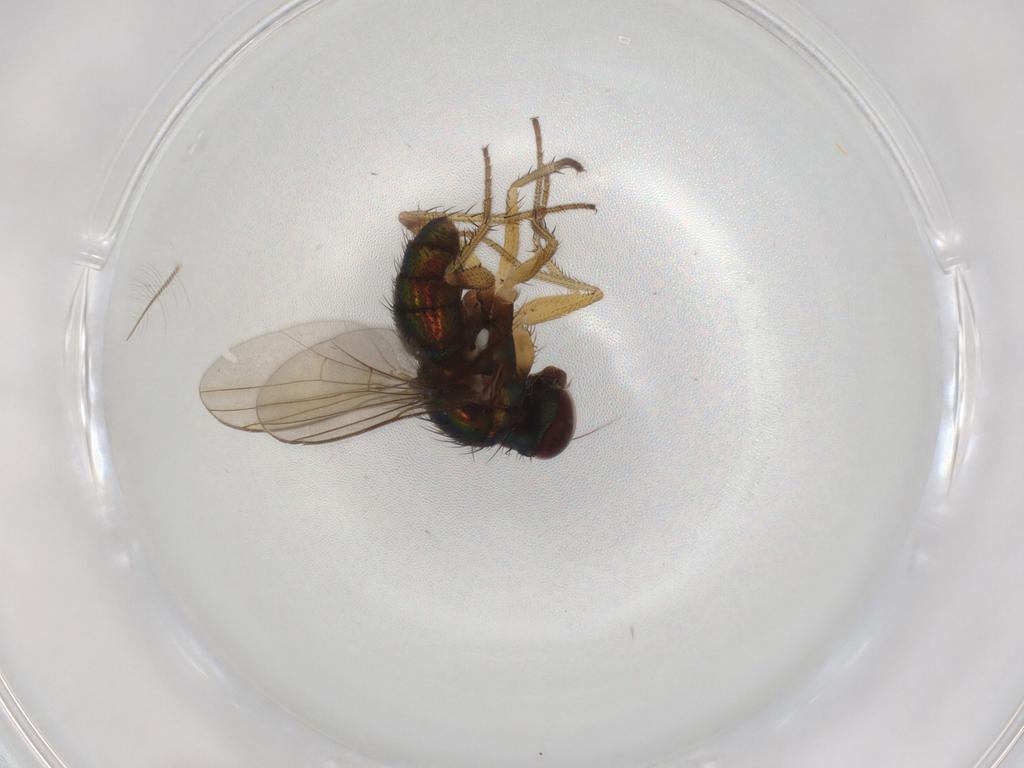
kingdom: Animalia
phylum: Arthropoda
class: Insecta
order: Diptera
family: Dolichopodidae
